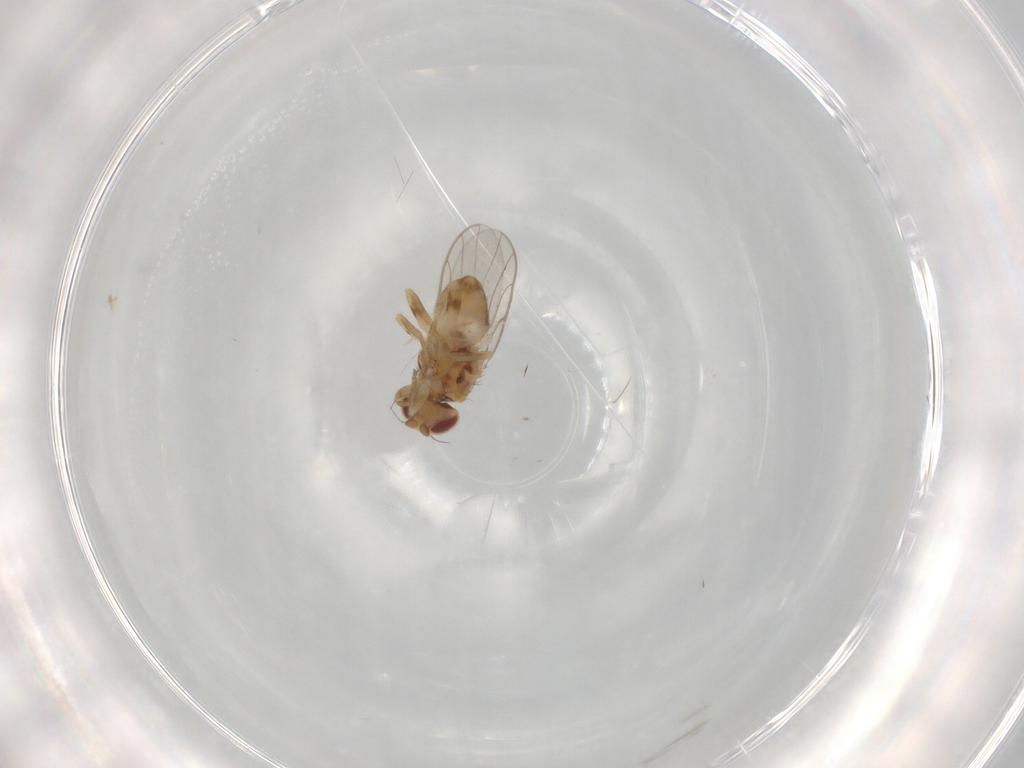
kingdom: Animalia
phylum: Arthropoda
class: Insecta
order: Diptera
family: Chloropidae
